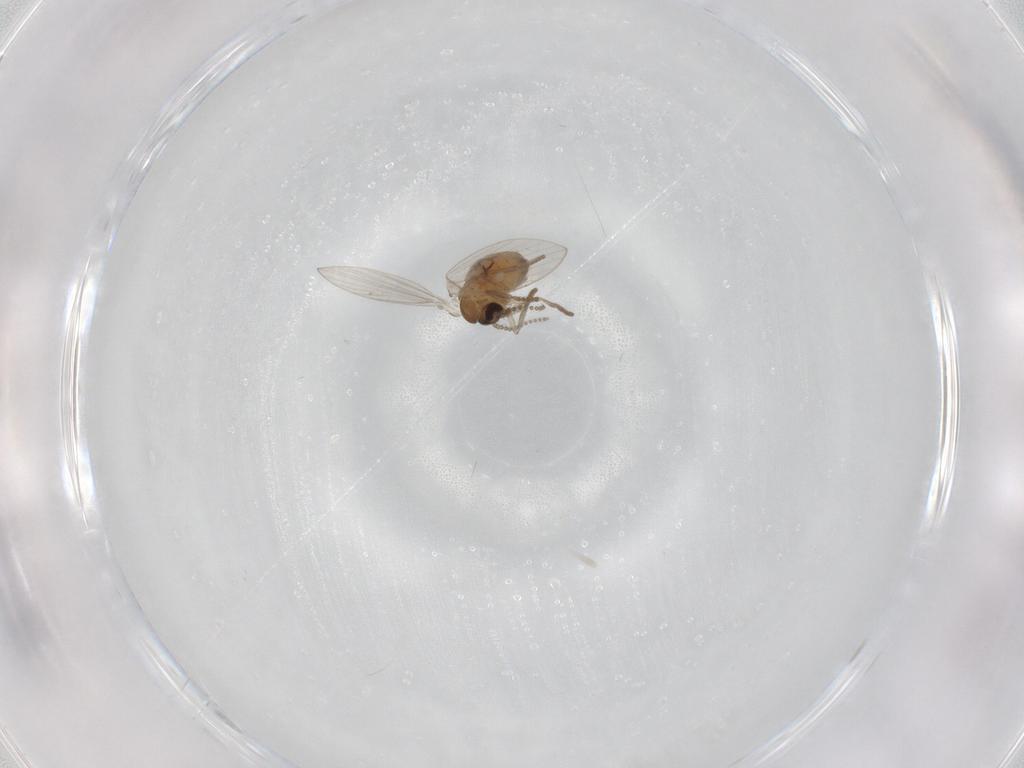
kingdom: Animalia
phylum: Arthropoda
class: Insecta
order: Diptera
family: Psychodidae
